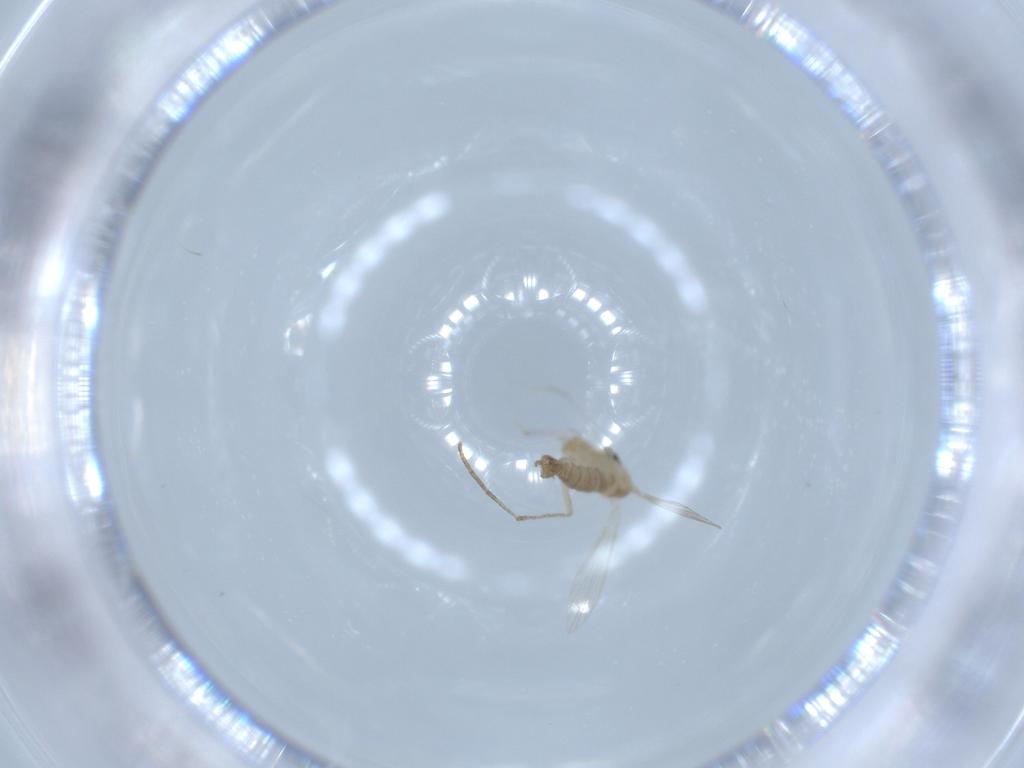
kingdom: Animalia
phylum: Arthropoda
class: Insecta
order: Diptera
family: Psychodidae
